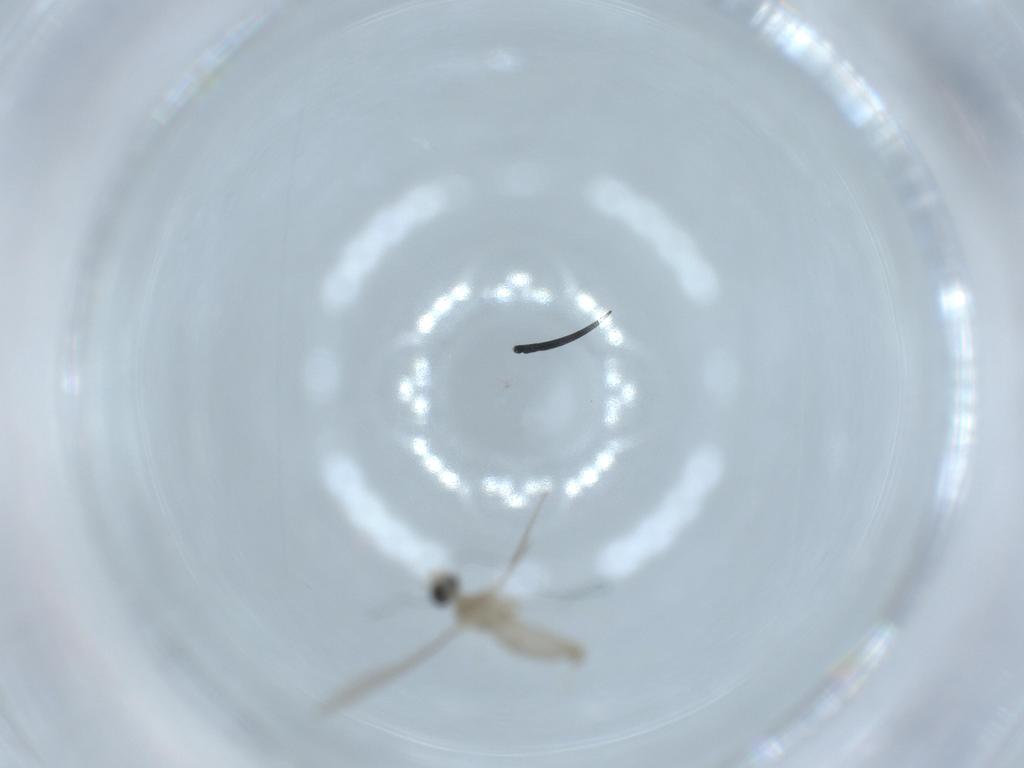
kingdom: Animalia
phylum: Arthropoda
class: Insecta
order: Diptera
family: Cecidomyiidae
